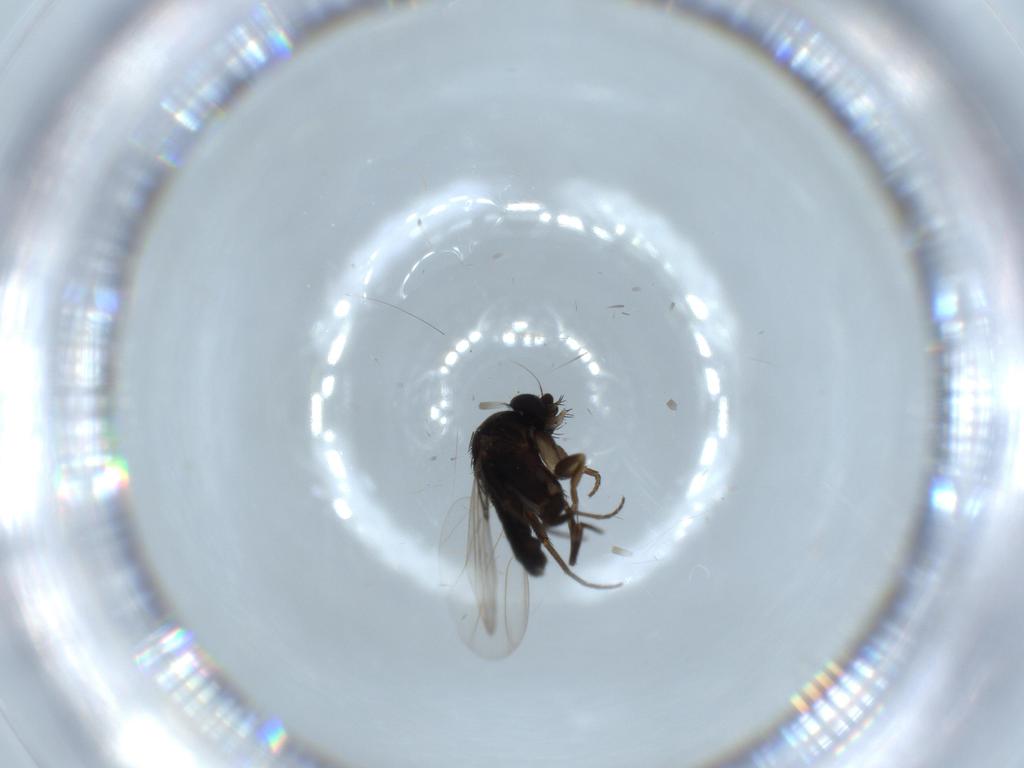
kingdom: Animalia
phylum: Arthropoda
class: Insecta
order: Diptera
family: Phoridae
